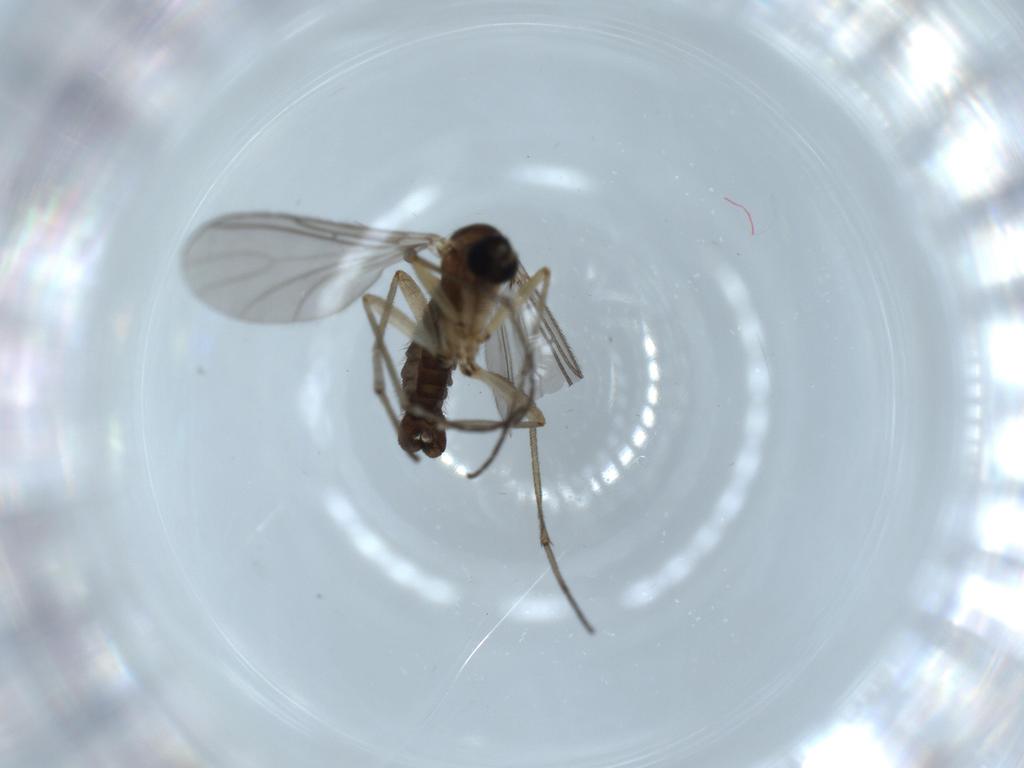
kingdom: Animalia
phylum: Arthropoda
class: Insecta
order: Diptera
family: Sciaridae
